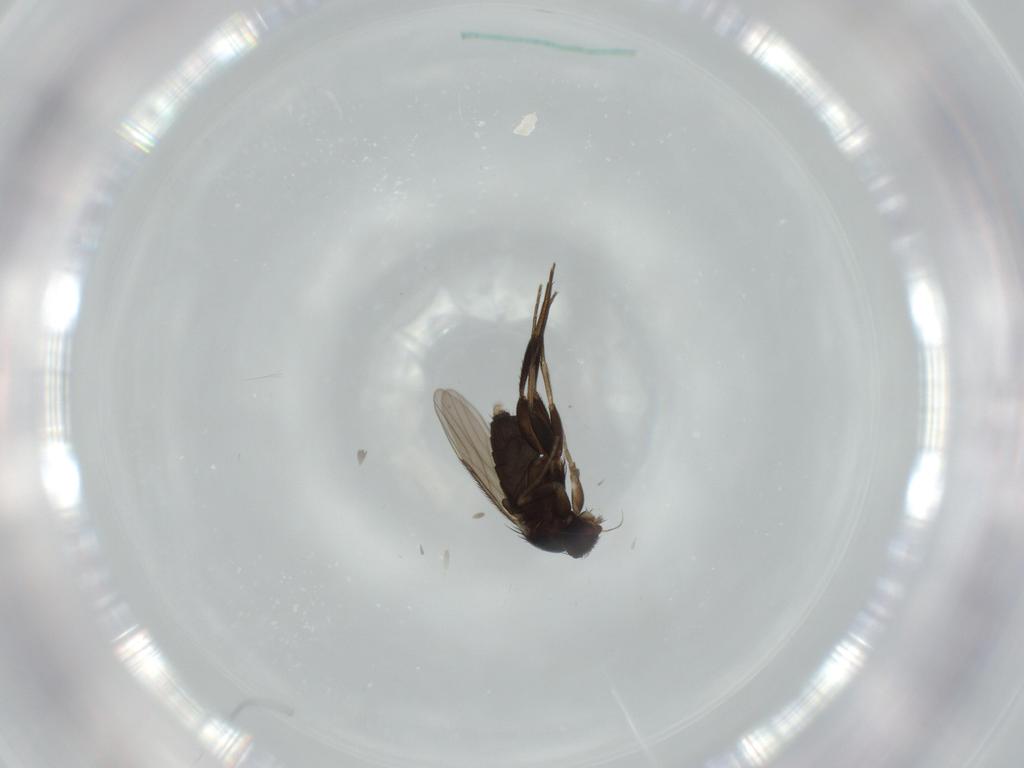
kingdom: Animalia
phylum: Arthropoda
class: Insecta
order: Diptera
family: Phoridae
